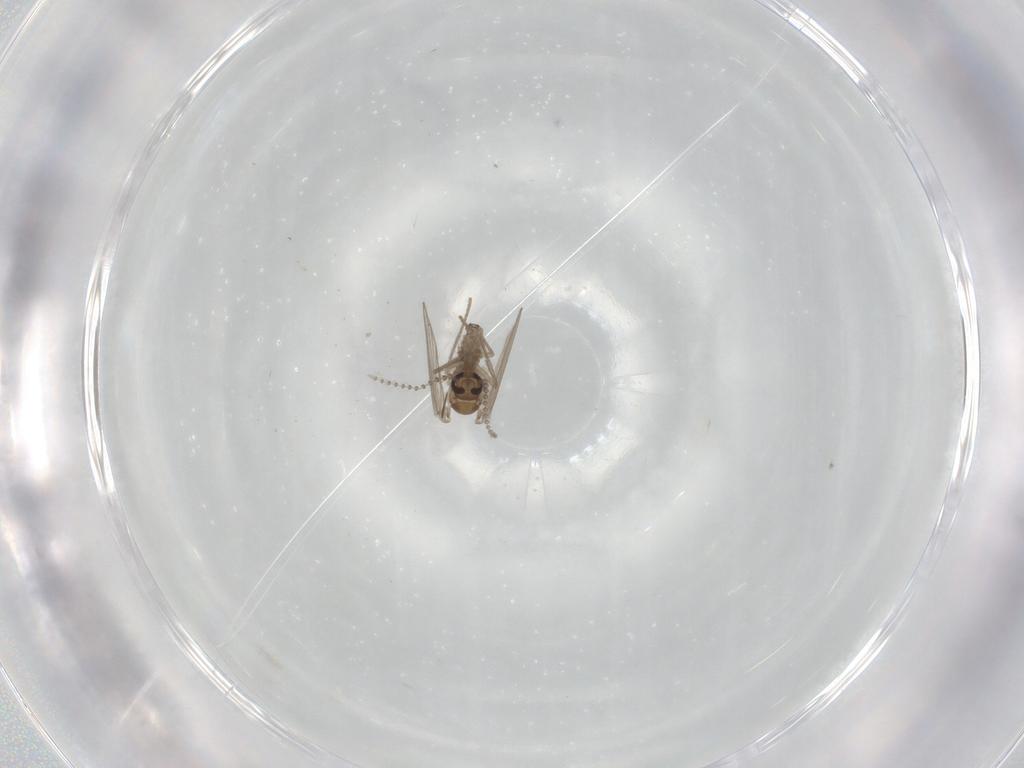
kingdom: Animalia
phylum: Arthropoda
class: Insecta
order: Diptera
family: Psychodidae
